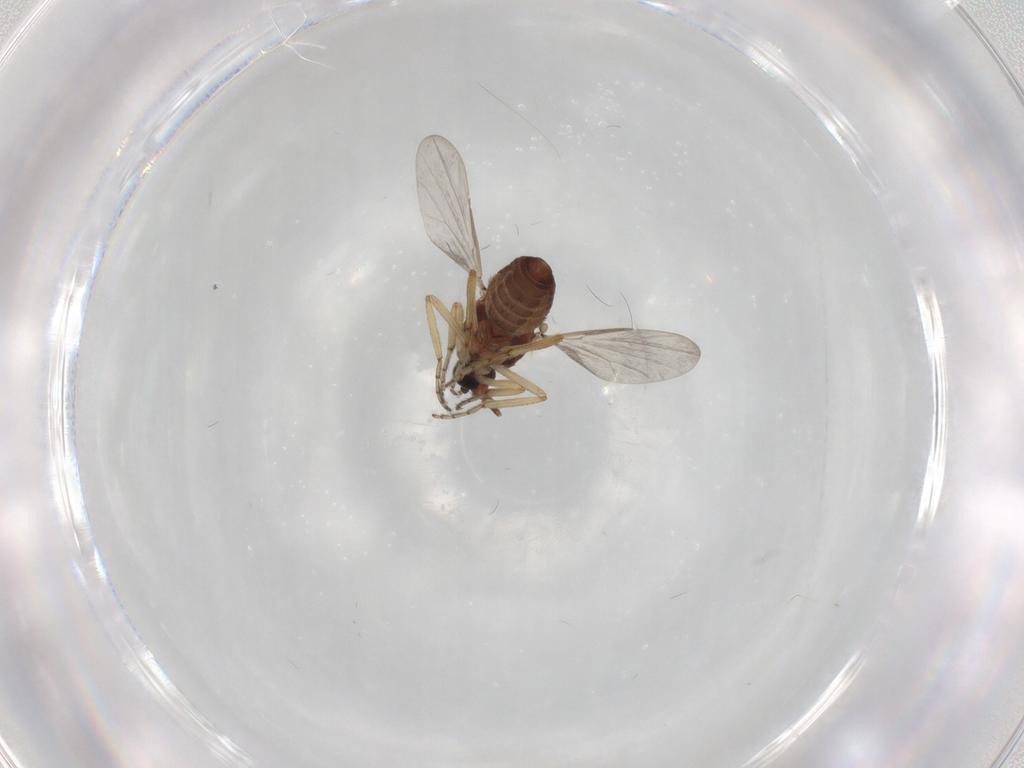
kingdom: Animalia
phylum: Arthropoda
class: Insecta
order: Diptera
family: Ceratopogonidae
